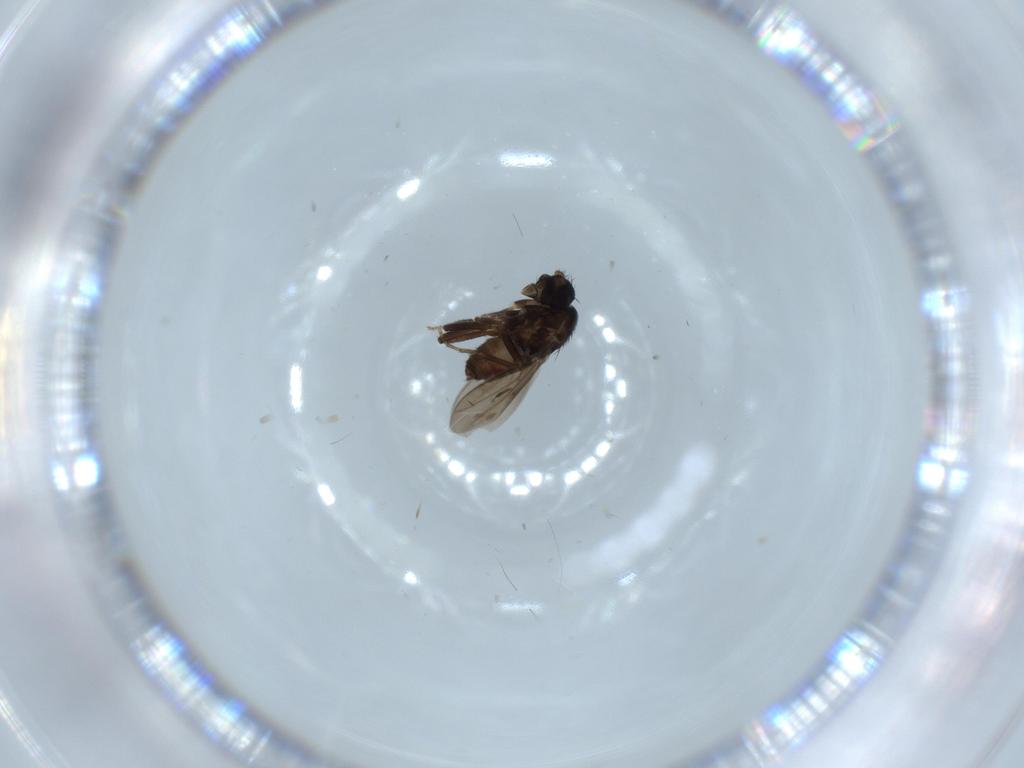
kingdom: Animalia
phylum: Arthropoda
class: Insecta
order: Diptera
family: Sphaeroceridae
